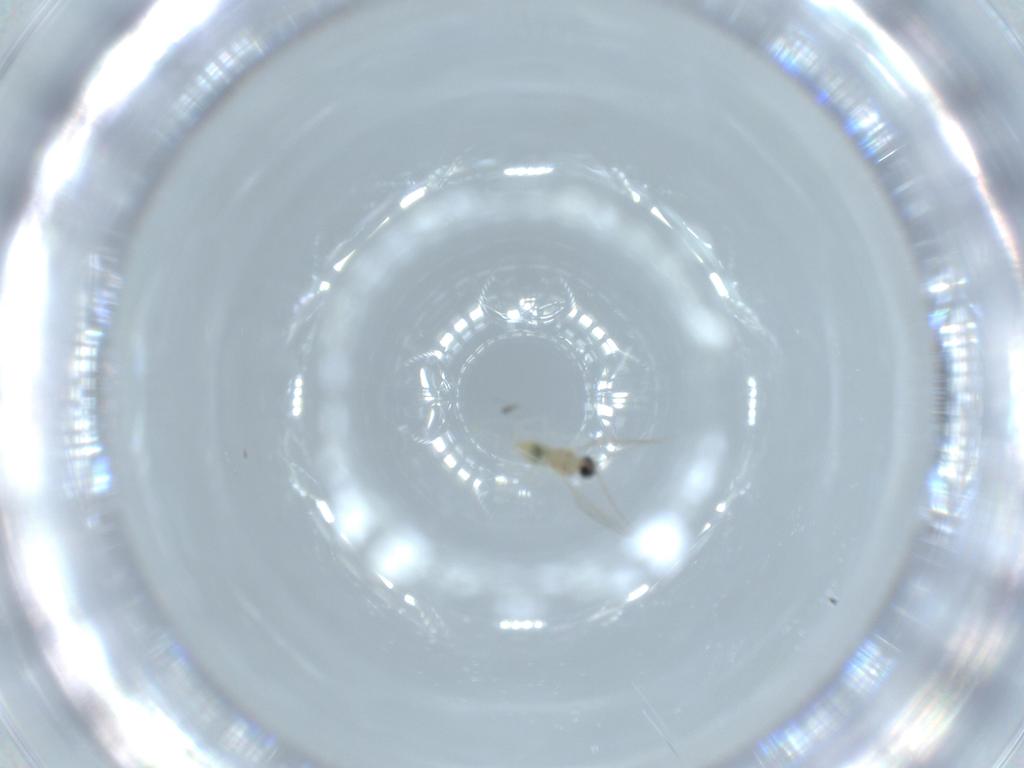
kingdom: Animalia
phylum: Arthropoda
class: Insecta
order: Diptera
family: Cecidomyiidae
